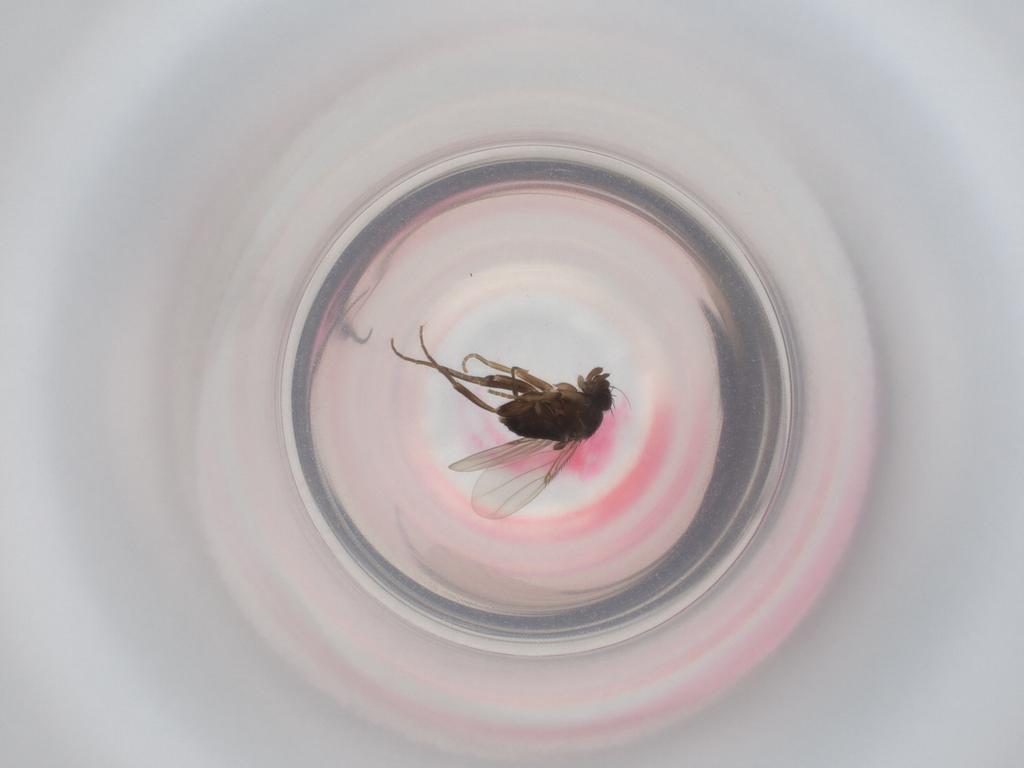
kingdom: Animalia
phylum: Arthropoda
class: Insecta
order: Diptera
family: Phoridae
